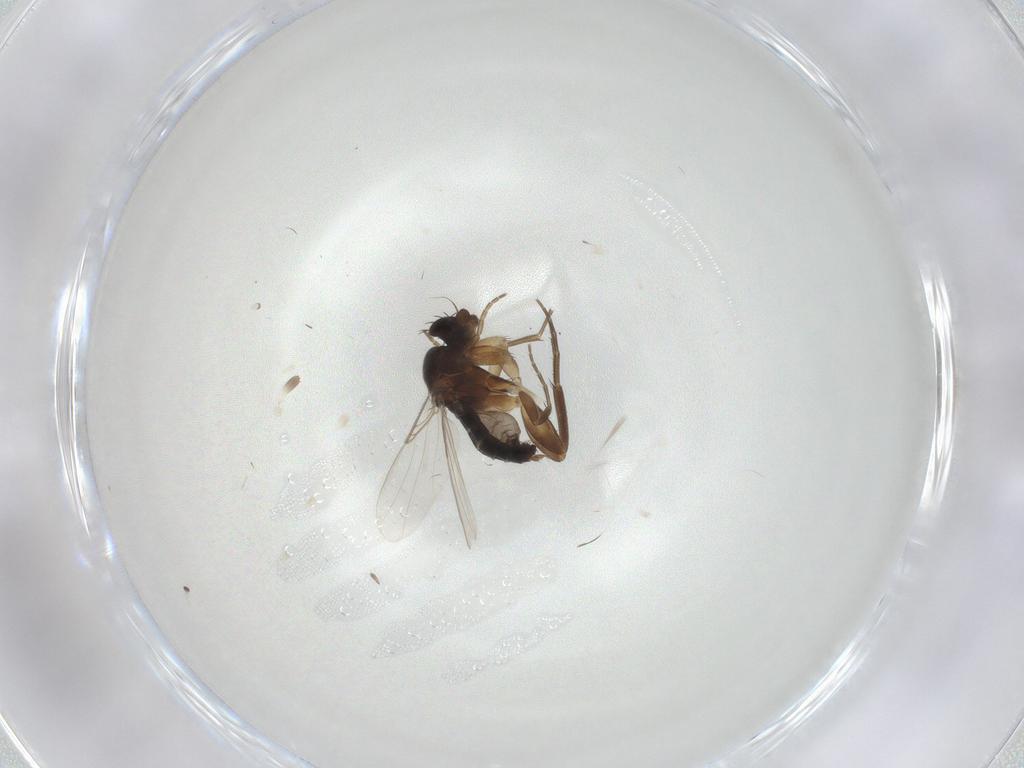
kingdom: Animalia
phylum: Arthropoda
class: Insecta
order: Diptera
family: Phoridae
